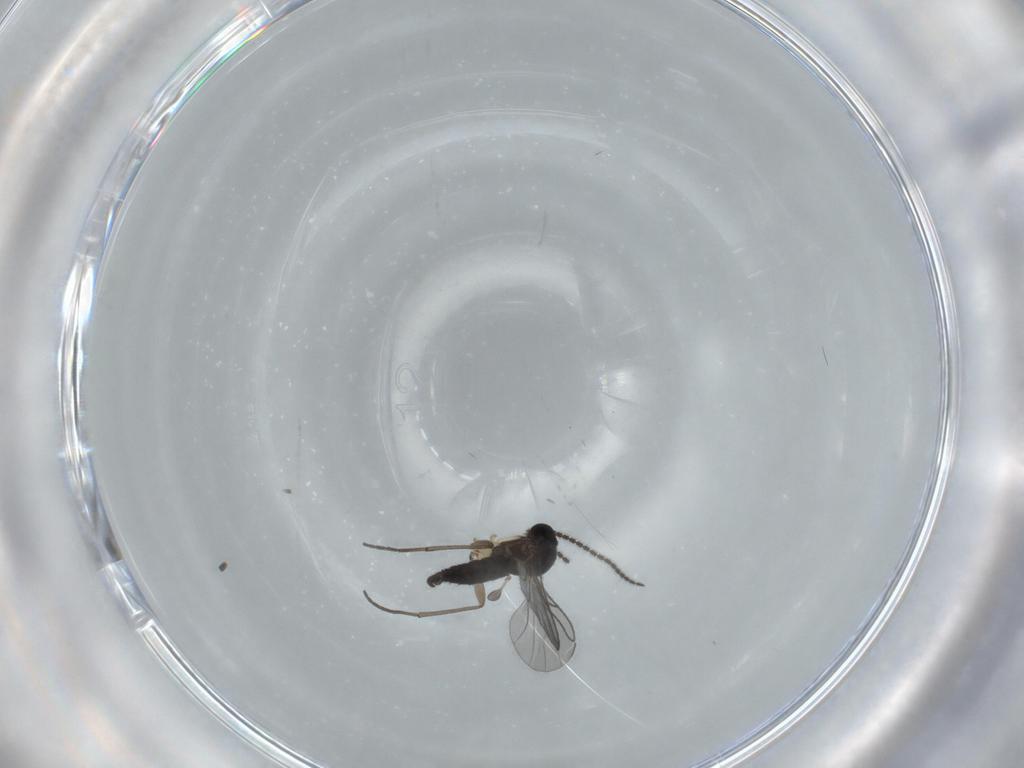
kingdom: Animalia
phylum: Arthropoda
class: Insecta
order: Diptera
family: Sciaridae
